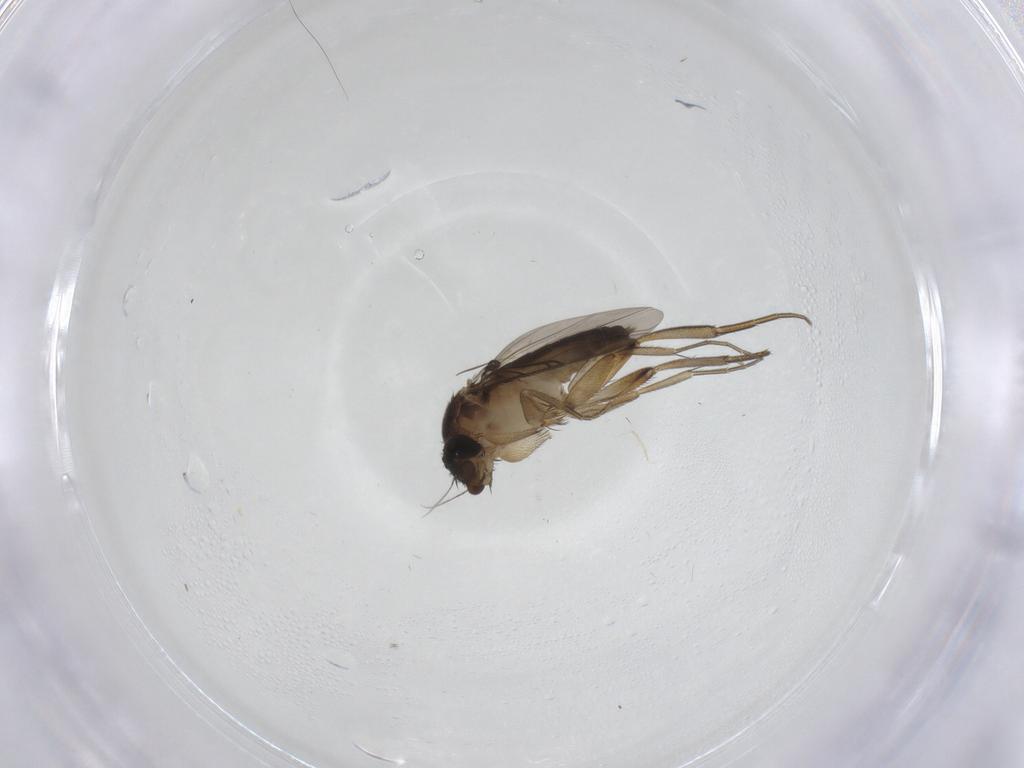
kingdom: Animalia
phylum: Arthropoda
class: Insecta
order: Diptera
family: Phoridae
